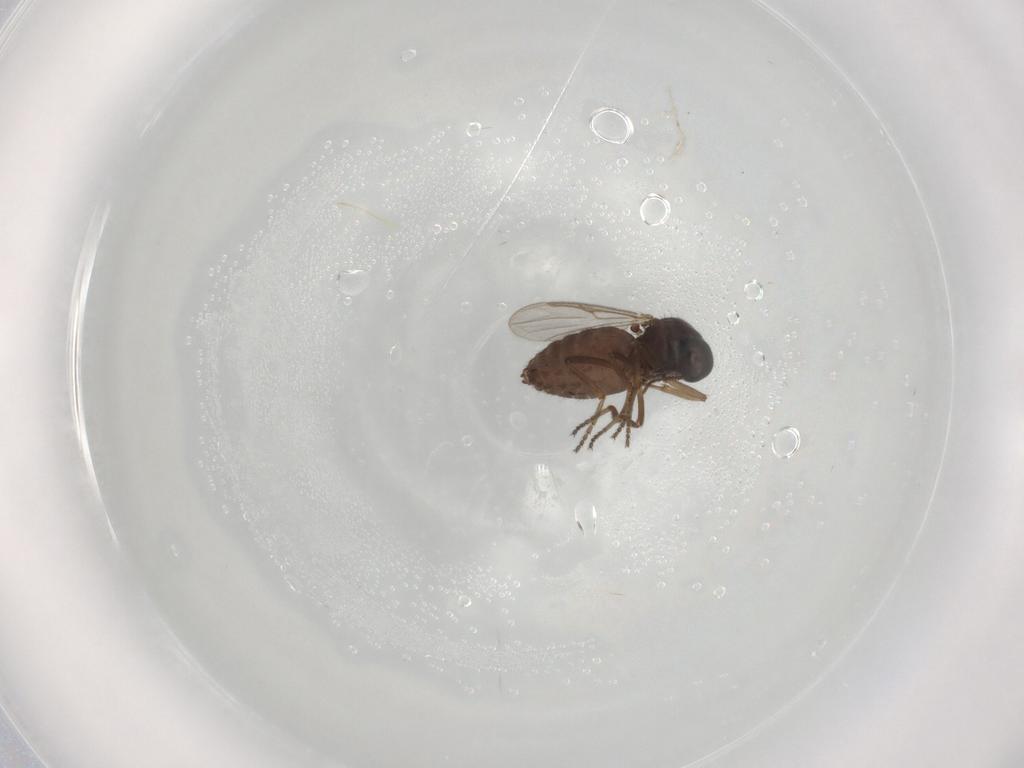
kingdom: Animalia
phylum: Arthropoda
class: Insecta
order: Diptera
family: Ceratopogonidae
